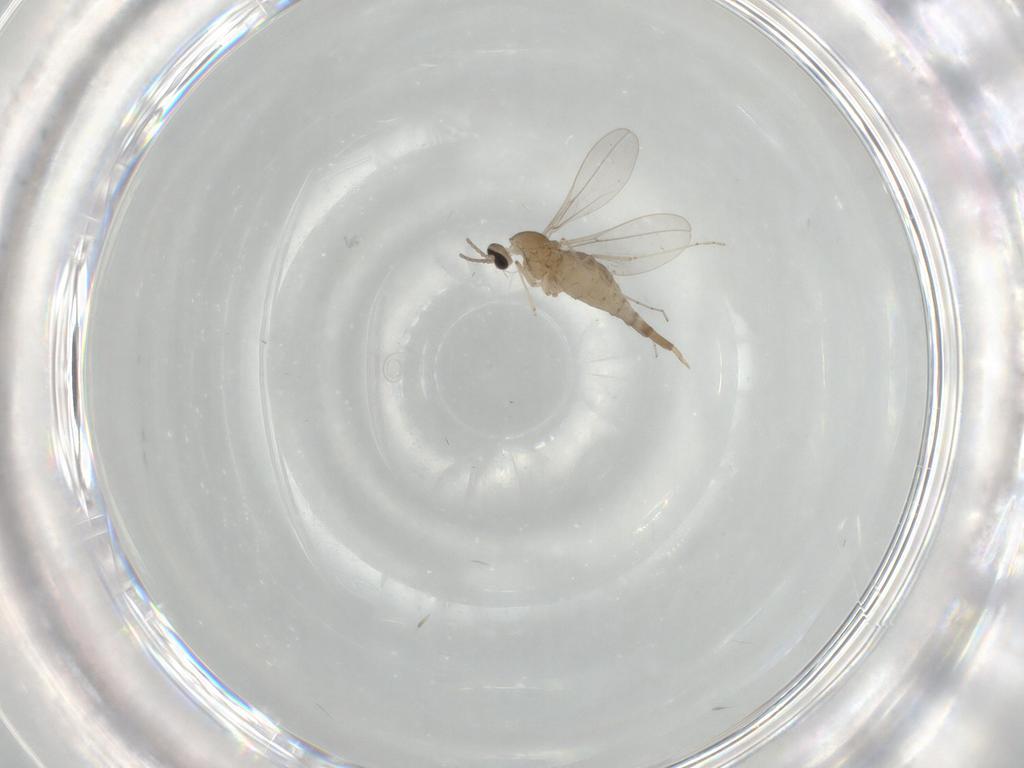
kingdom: Animalia
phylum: Arthropoda
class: Insecta
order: Diptera
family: Cecidomyiidae
